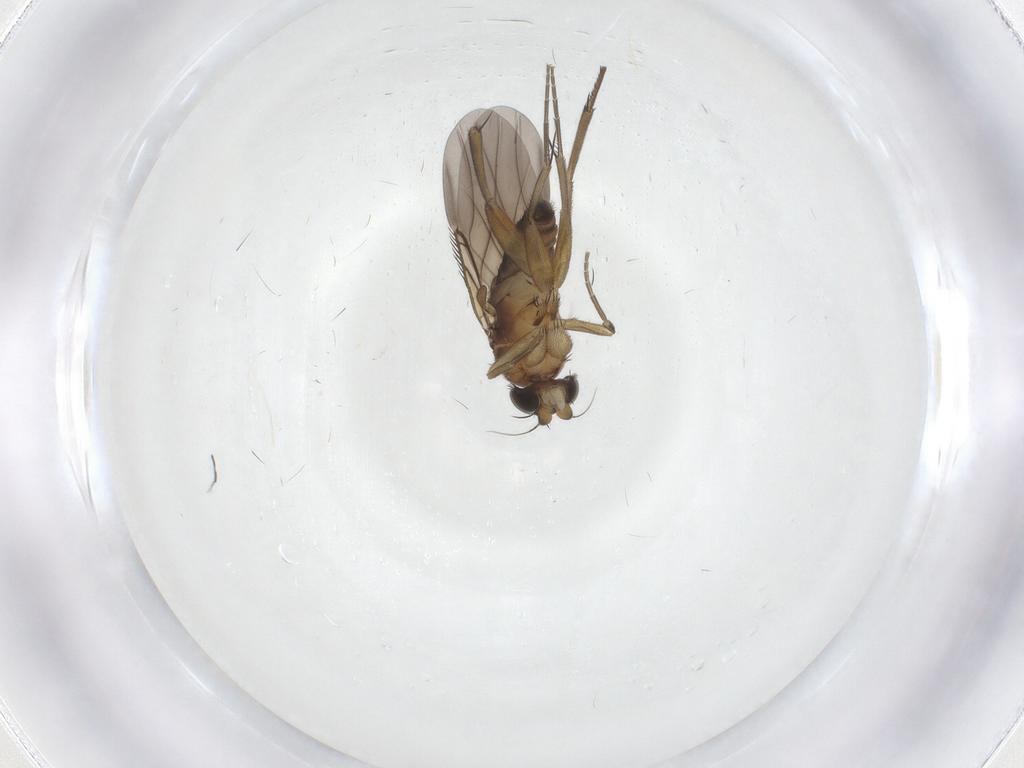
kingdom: Animalia
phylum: Arthropoda
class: Insecta
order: Diptera
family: Phoridae
